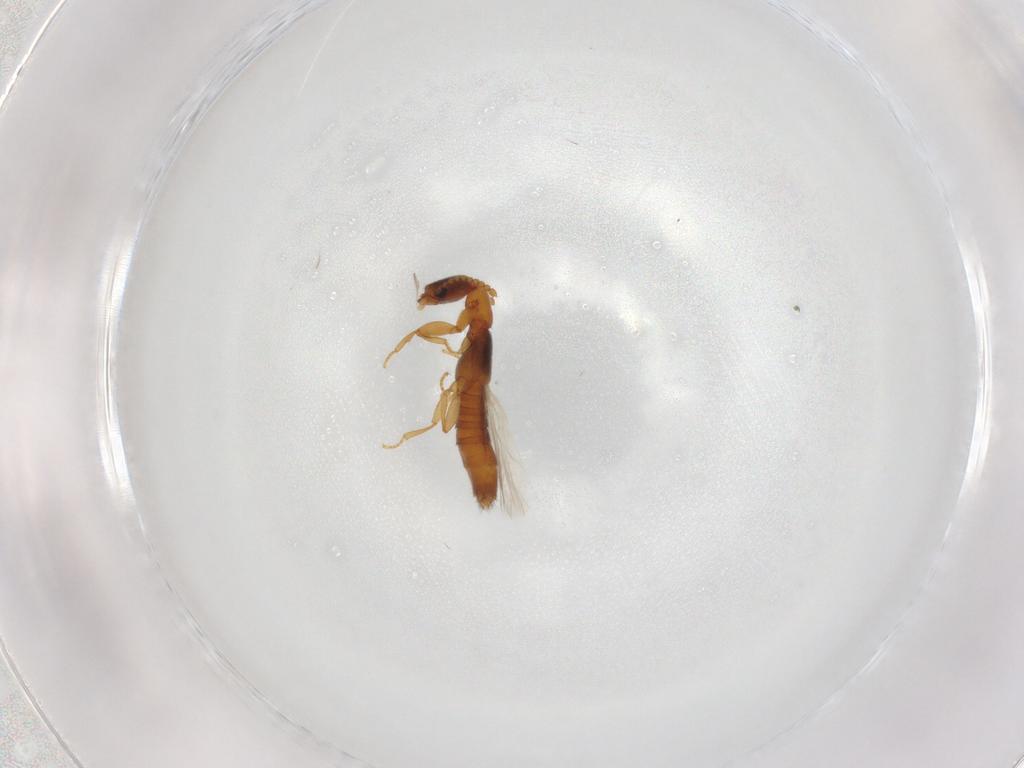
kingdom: Animalia
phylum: Arthropoda
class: Insecta
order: Coleoptera
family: Staphylinidae
